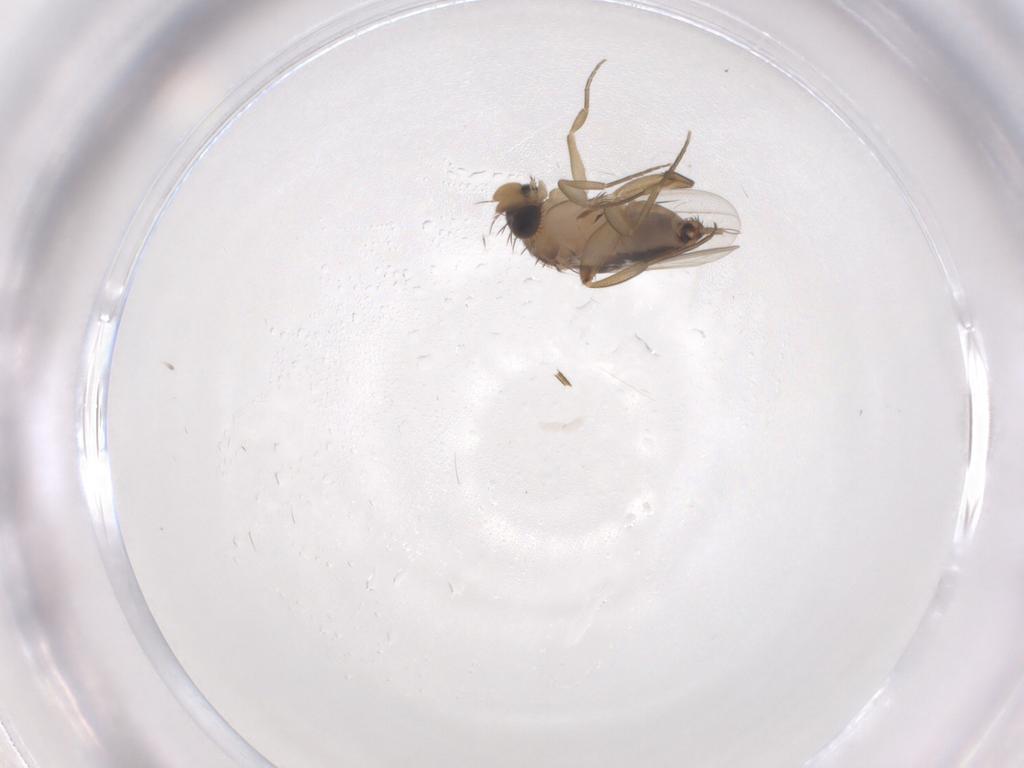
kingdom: Animalia
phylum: Arthropoda
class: Insecta
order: Diptera
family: Phoridae
